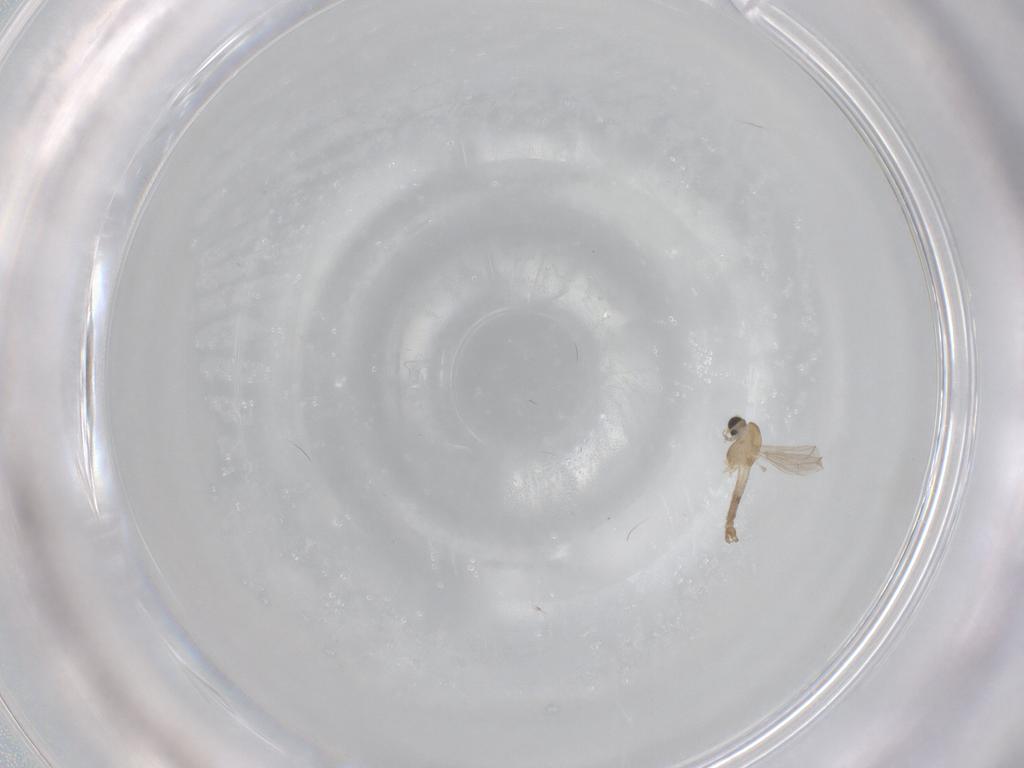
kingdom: Animalia
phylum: Arthropoda
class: Insecta
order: Diptera
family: Chironomidae
